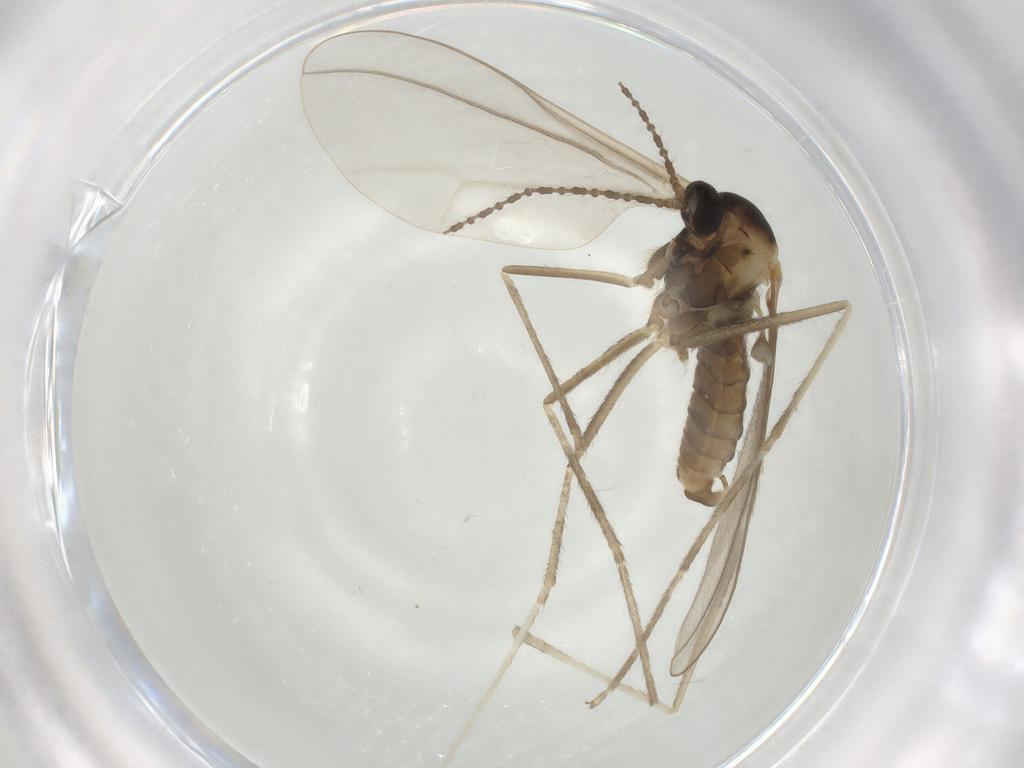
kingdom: Animalia
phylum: Arthropoda
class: Insecta
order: Diptera
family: Cecidomyiidae
